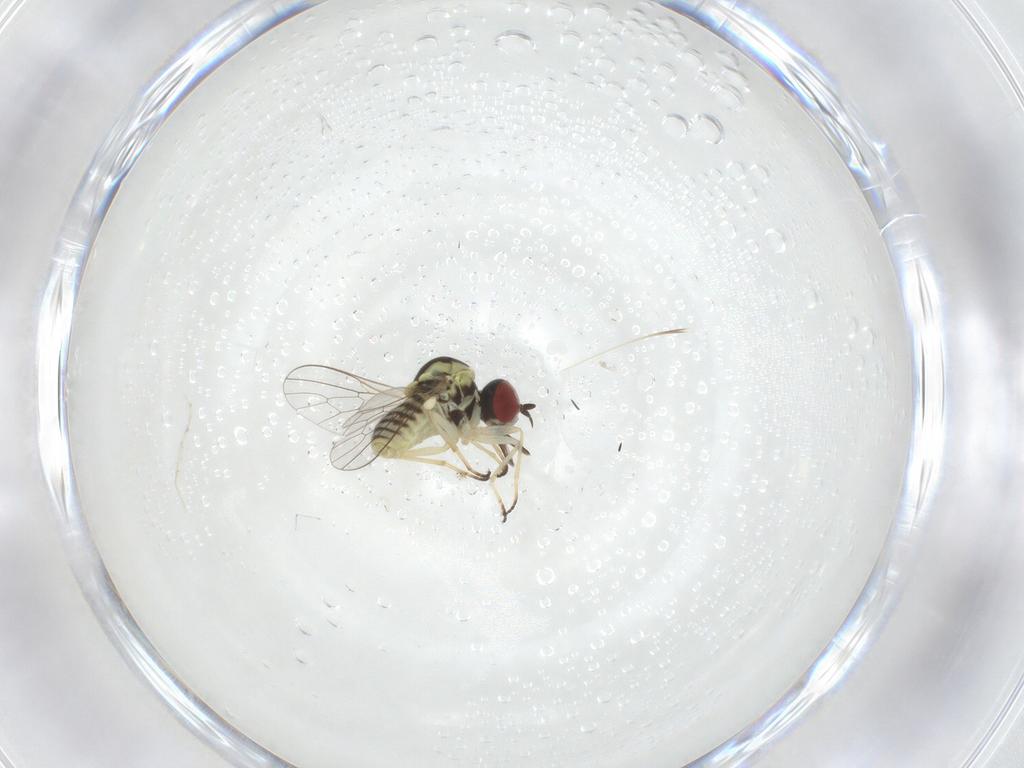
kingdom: Animalia
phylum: Arthropoda
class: Insecta
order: Diptera
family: Mythicomyiidae
